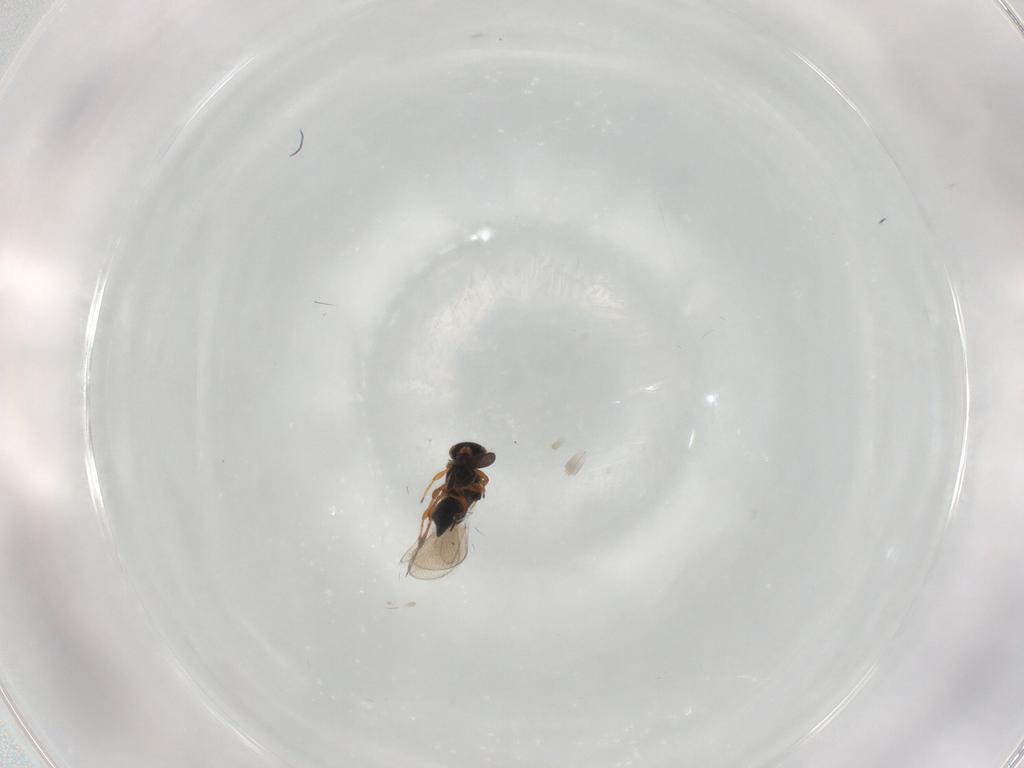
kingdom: Animalia
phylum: Arthropoda
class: Insecta
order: Hymenoptera
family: Platygastridae
